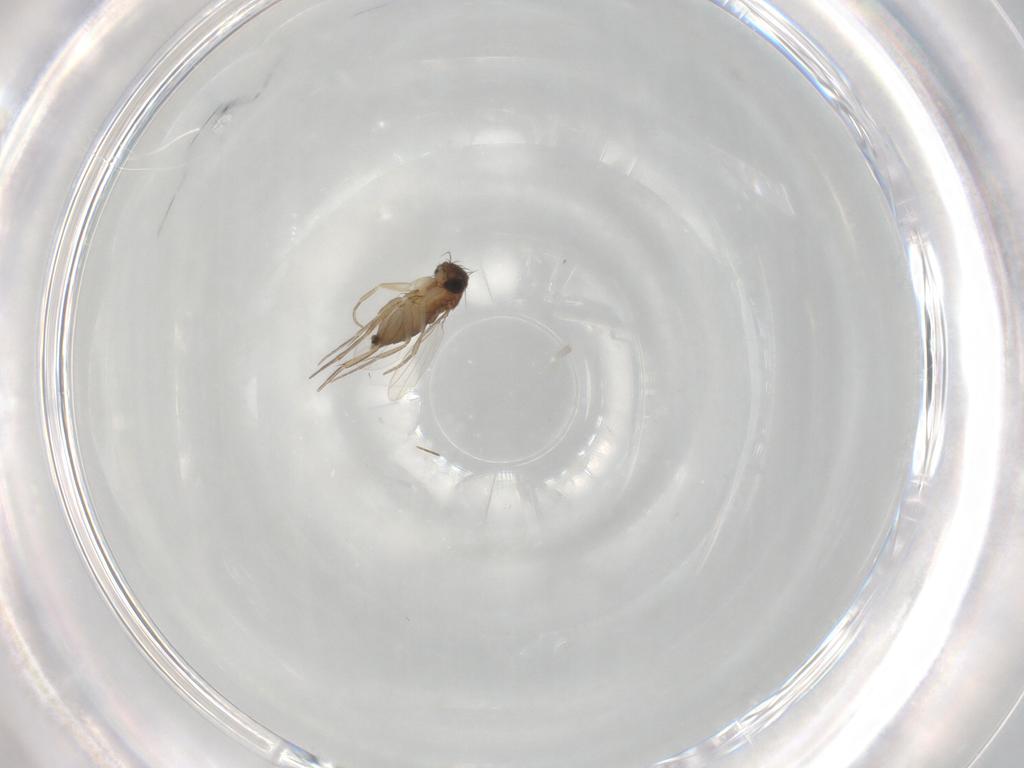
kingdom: Animalia
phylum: Arthropoda
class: Insecta
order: Diptera
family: Phoridae
